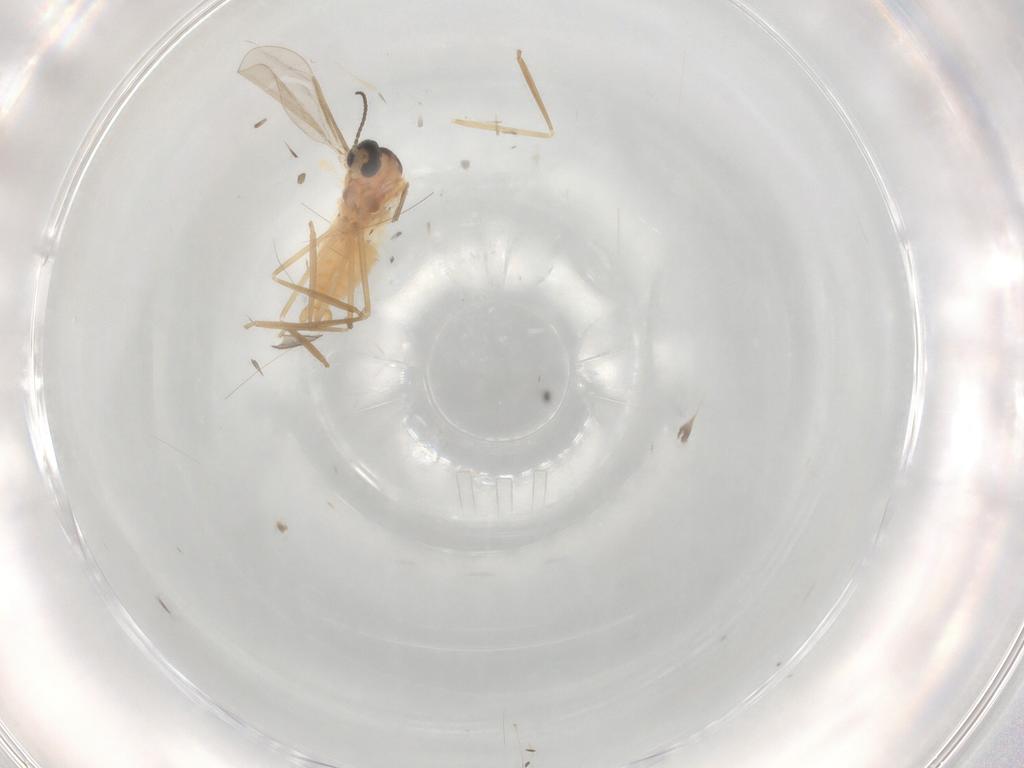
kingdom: Animalia
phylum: Arthropoda
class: Insecta
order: Diptera
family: Cecidomyiidae
